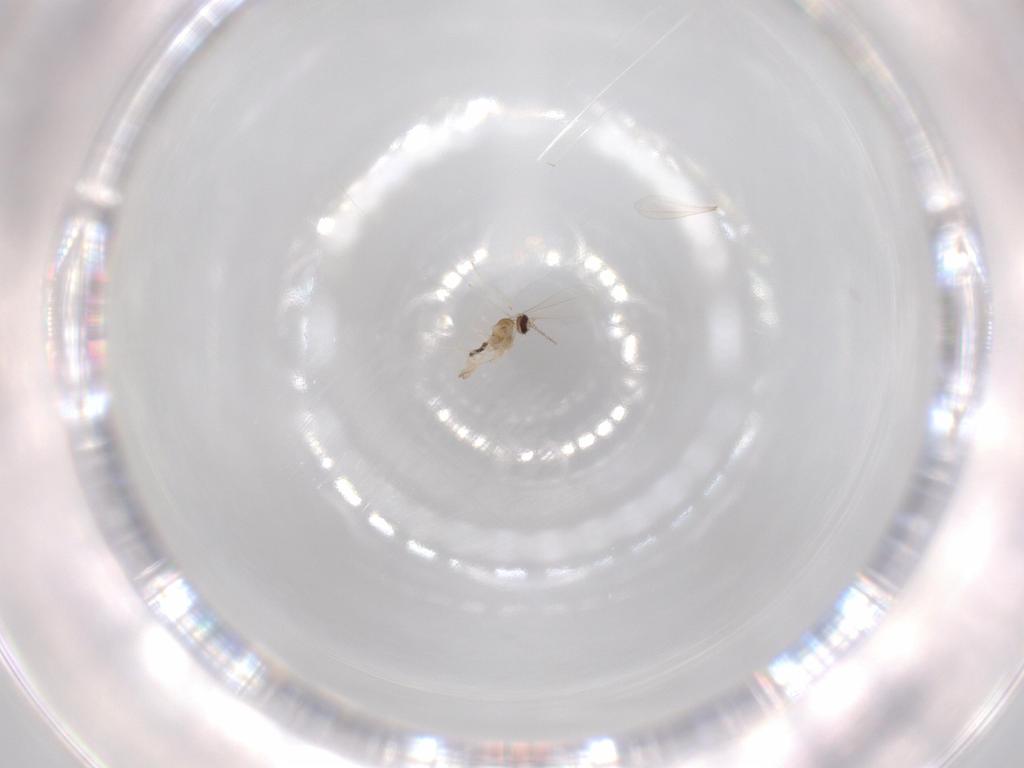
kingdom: Animalia
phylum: Arthropoda
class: Insecta
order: Diptera
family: Cecidomyiidae
